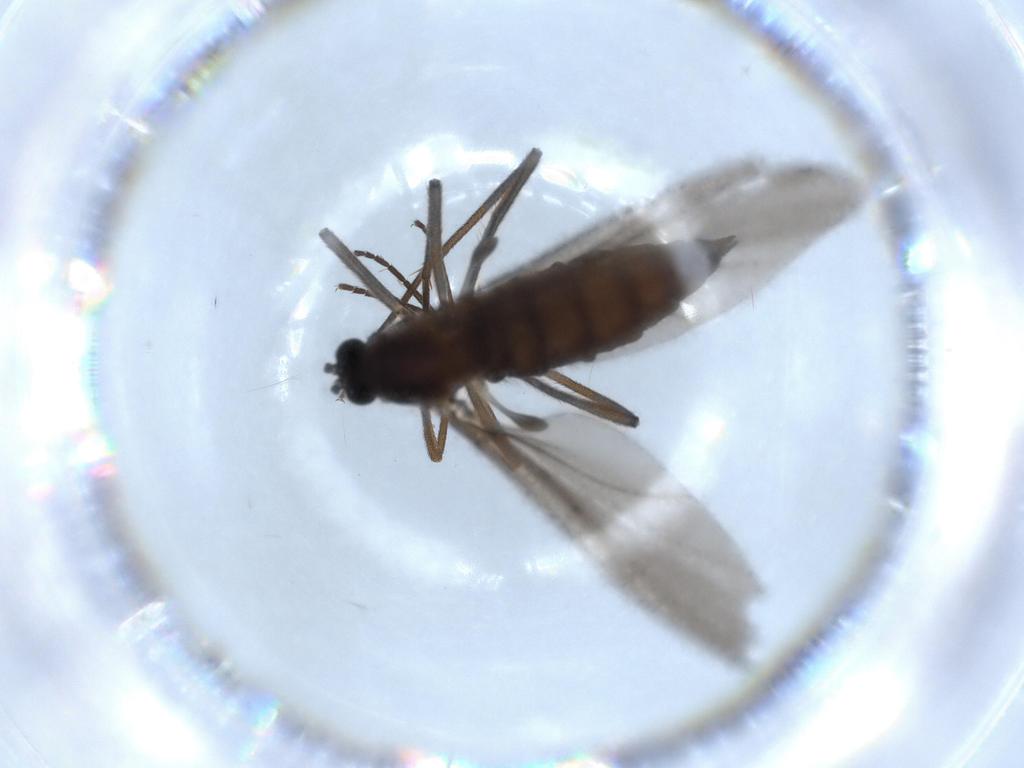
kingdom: Animalia
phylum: Arthropoda
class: Insecta
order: Diptera
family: Sciaridae
